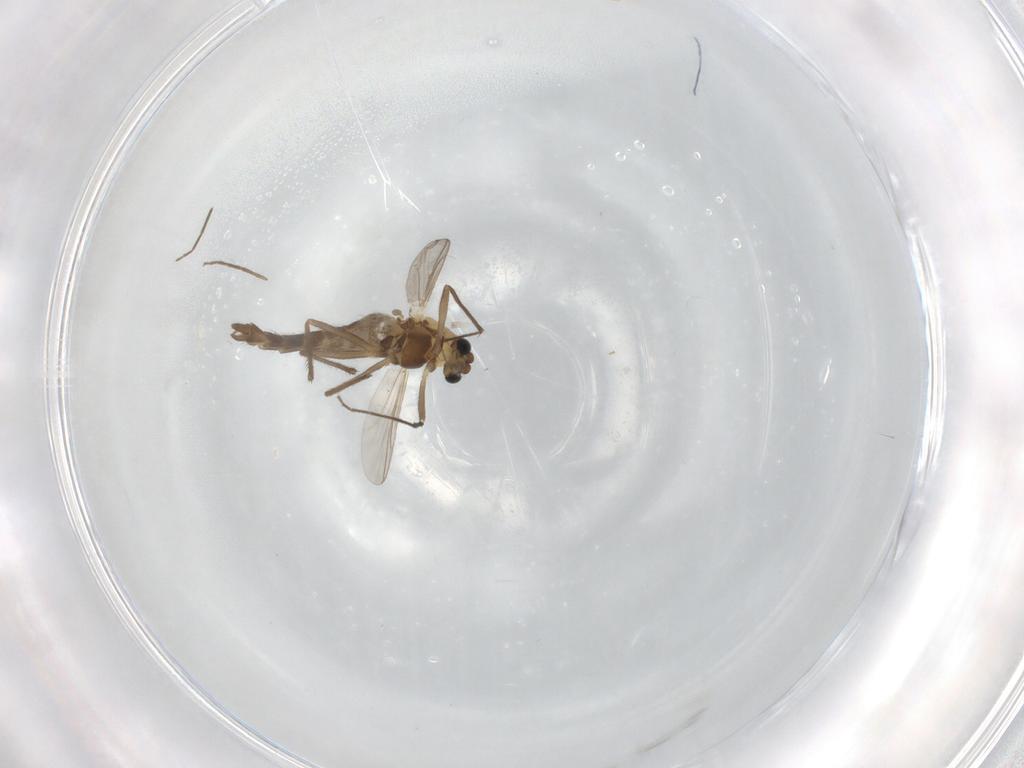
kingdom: Animalia
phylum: Arthropoda
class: Insecta
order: Diptera
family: Chironomidae
